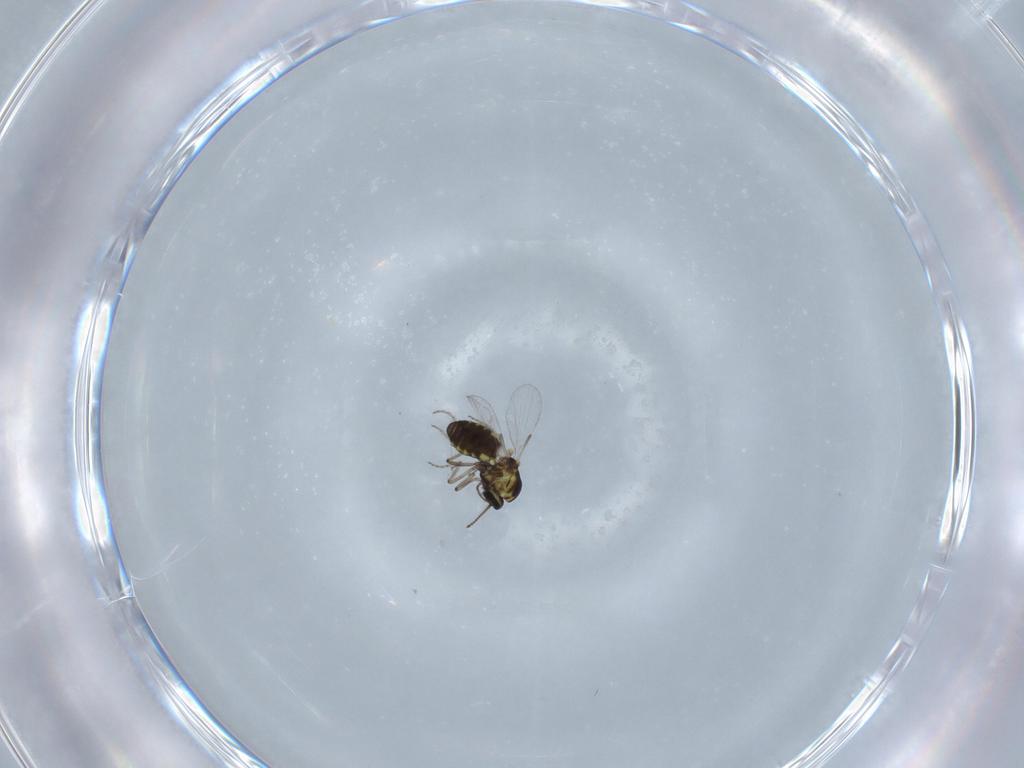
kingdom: Animalia
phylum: Arthropoda
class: Insecta
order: Diptera
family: Ceratopogonidae
